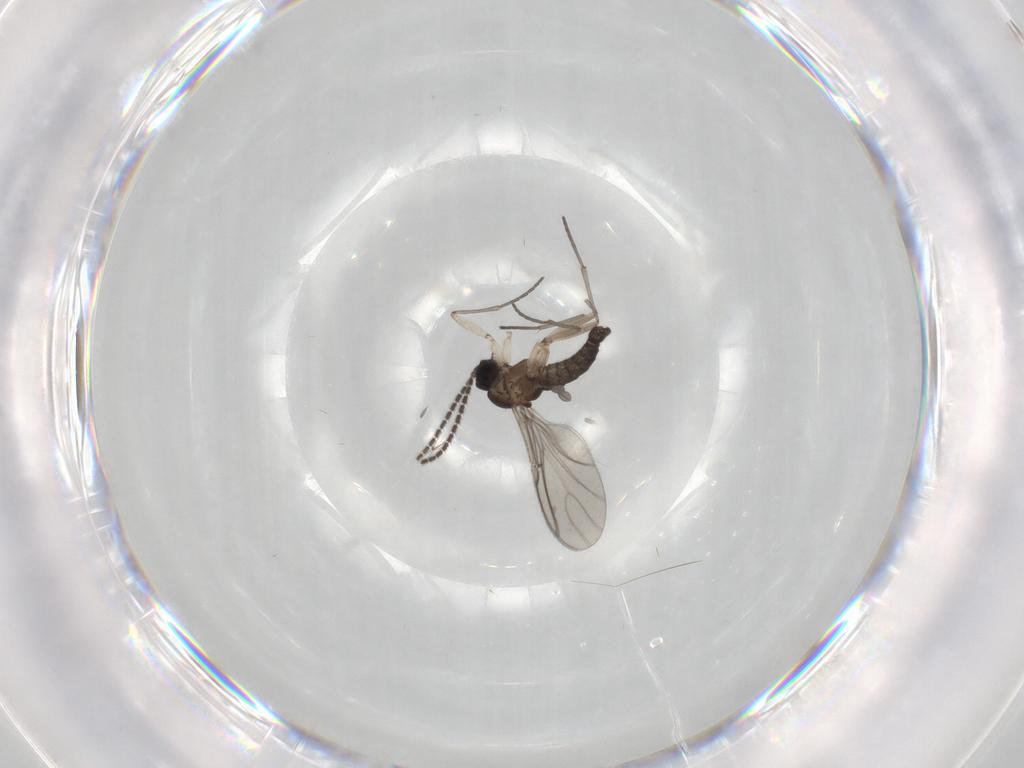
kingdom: Animalia
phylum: Arthropoda
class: Insecta
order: Diptera
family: Sciaridae
